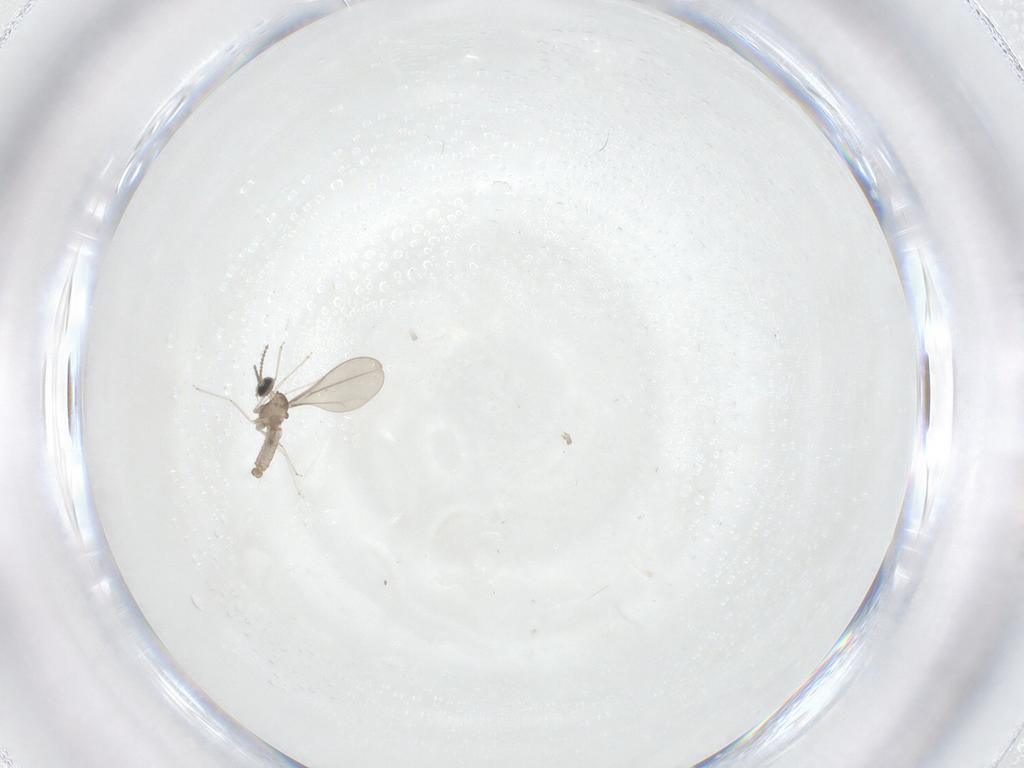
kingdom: Animalia
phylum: Arthropoda
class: Insecta
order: Diptera
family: Cecidomyiidae
